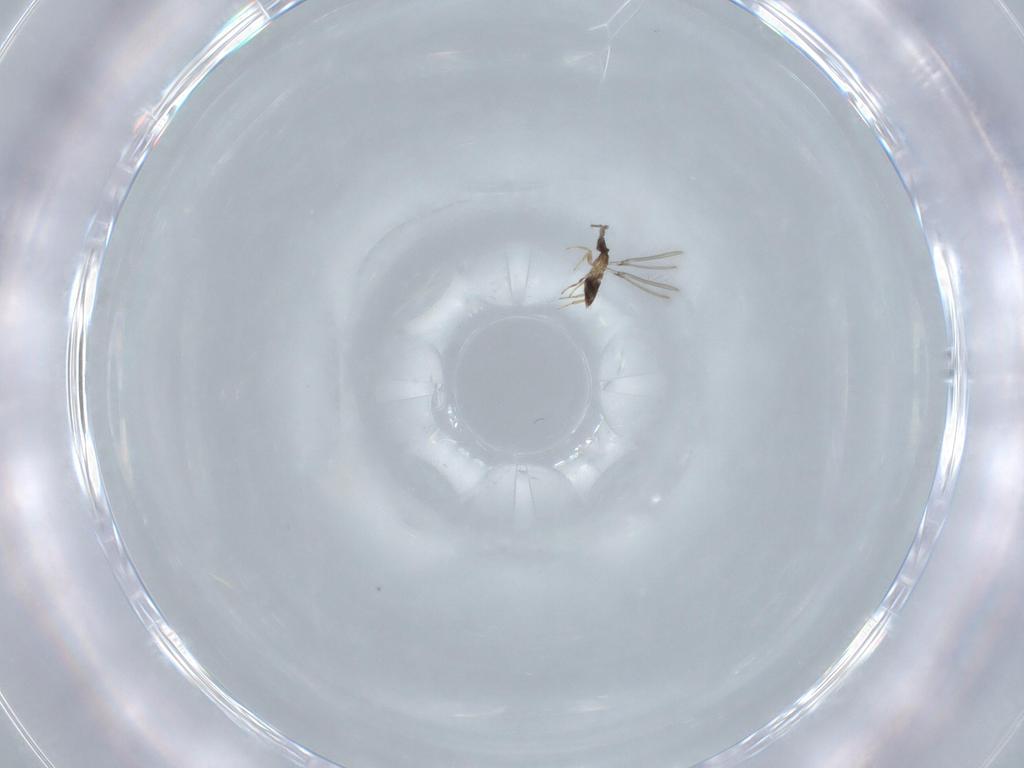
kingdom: Animalia
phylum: Arthropoda
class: Insecta
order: Hymenoptera
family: Mymaridae
